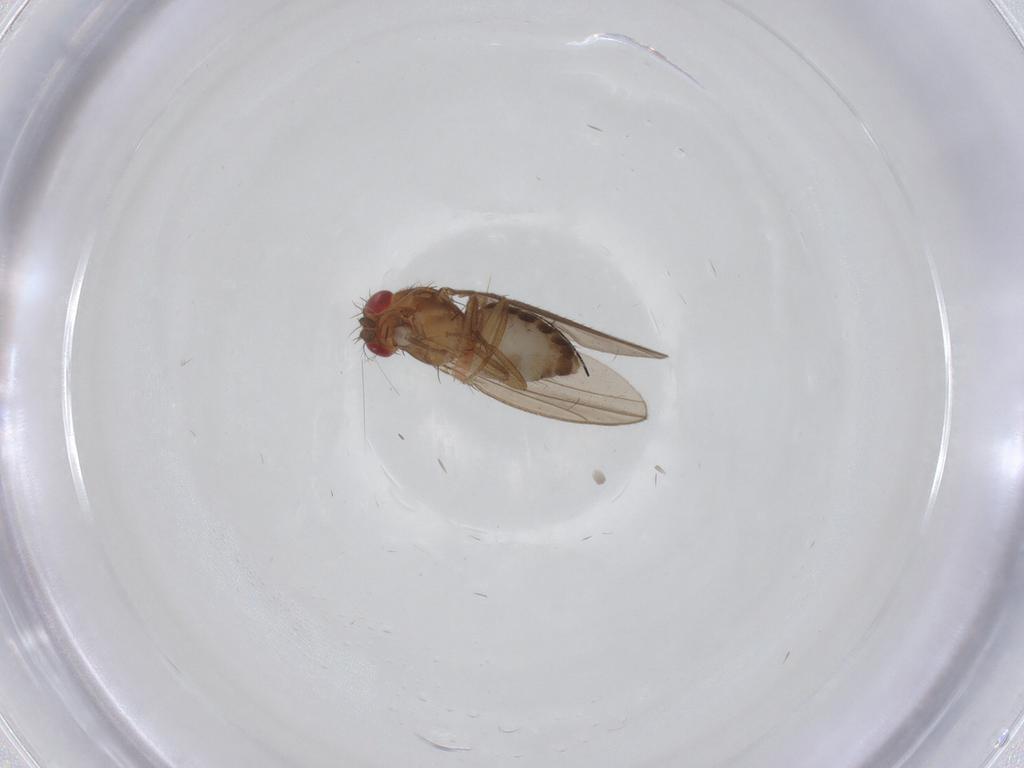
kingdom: Animalia
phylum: Arthropoda
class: Insecta
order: Diptera
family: Drosophilidae
